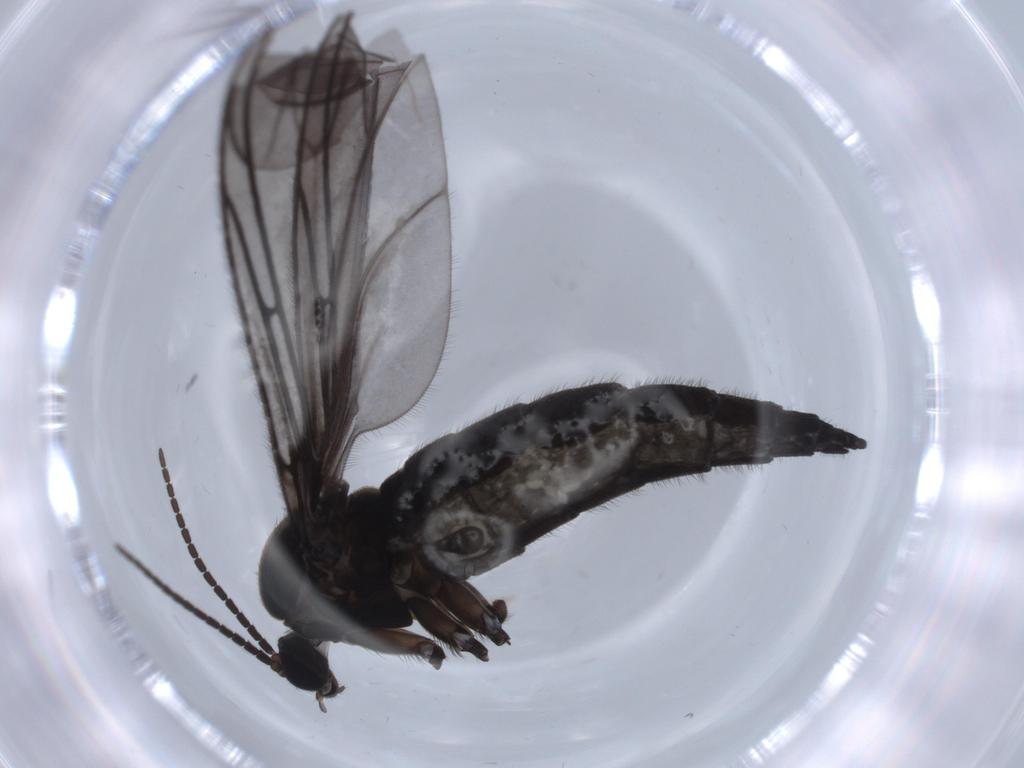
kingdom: Animalia
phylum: Arthropoda
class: Insecta
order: Diptera
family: Sciaridae
